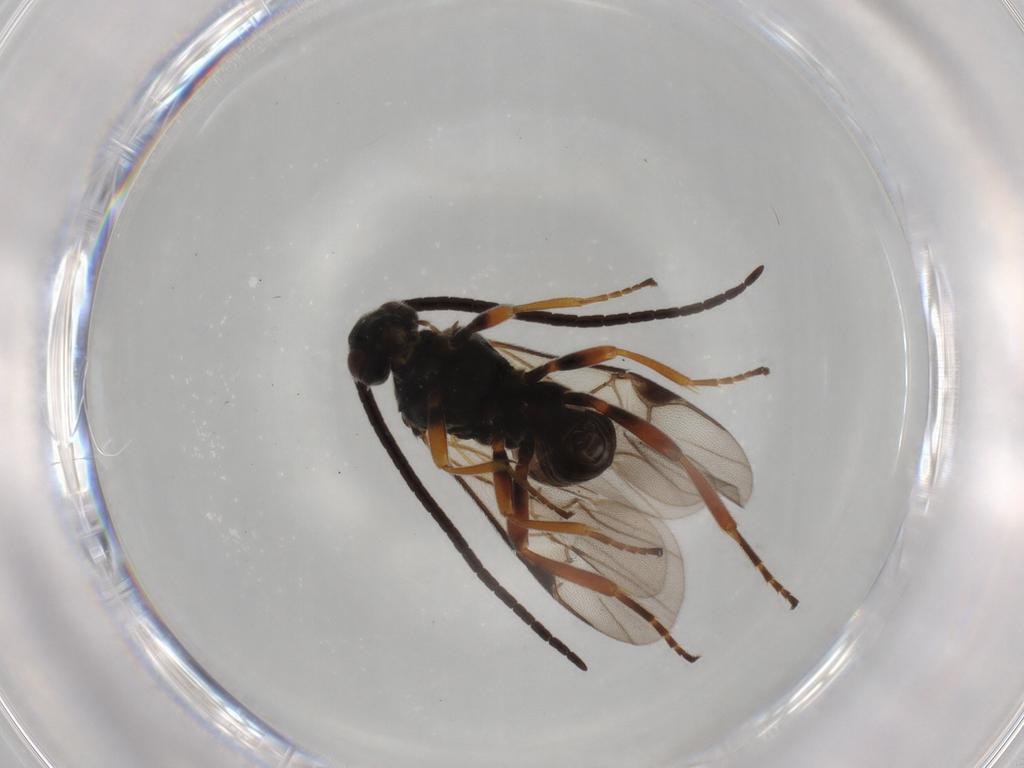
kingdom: Animalia
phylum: Arthropoda
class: Insecta
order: Hymenoptera
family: Braconidae
